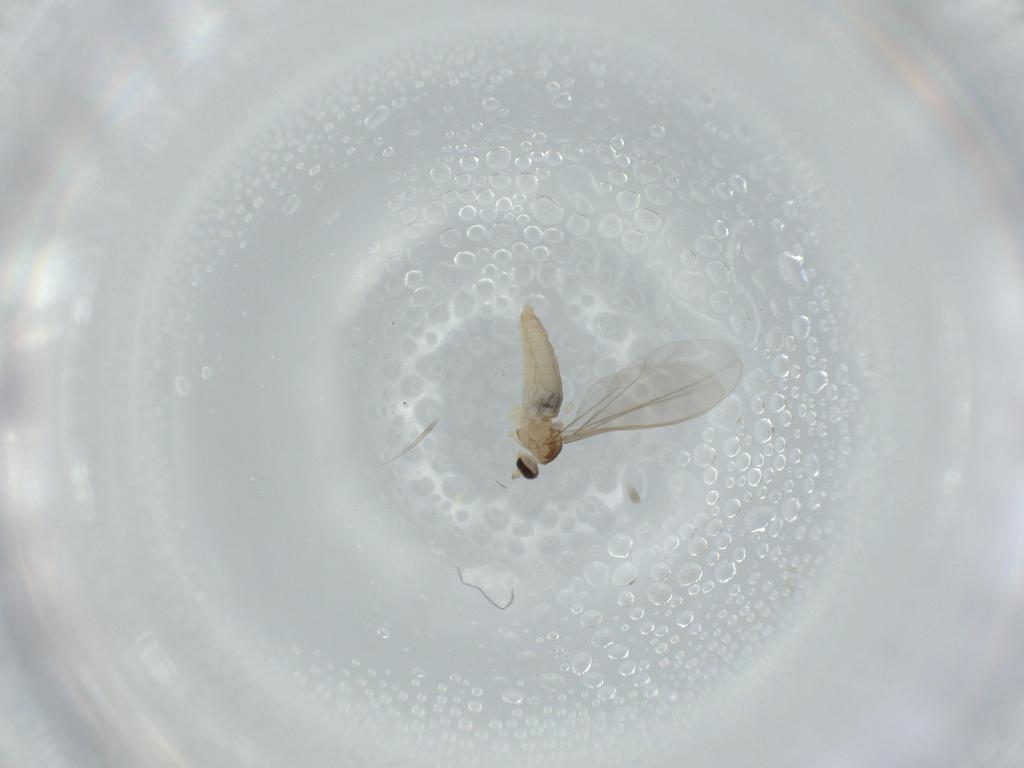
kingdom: Animalia
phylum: Arthropoda
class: Insecta
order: Diptera
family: Cecidomyiidae
